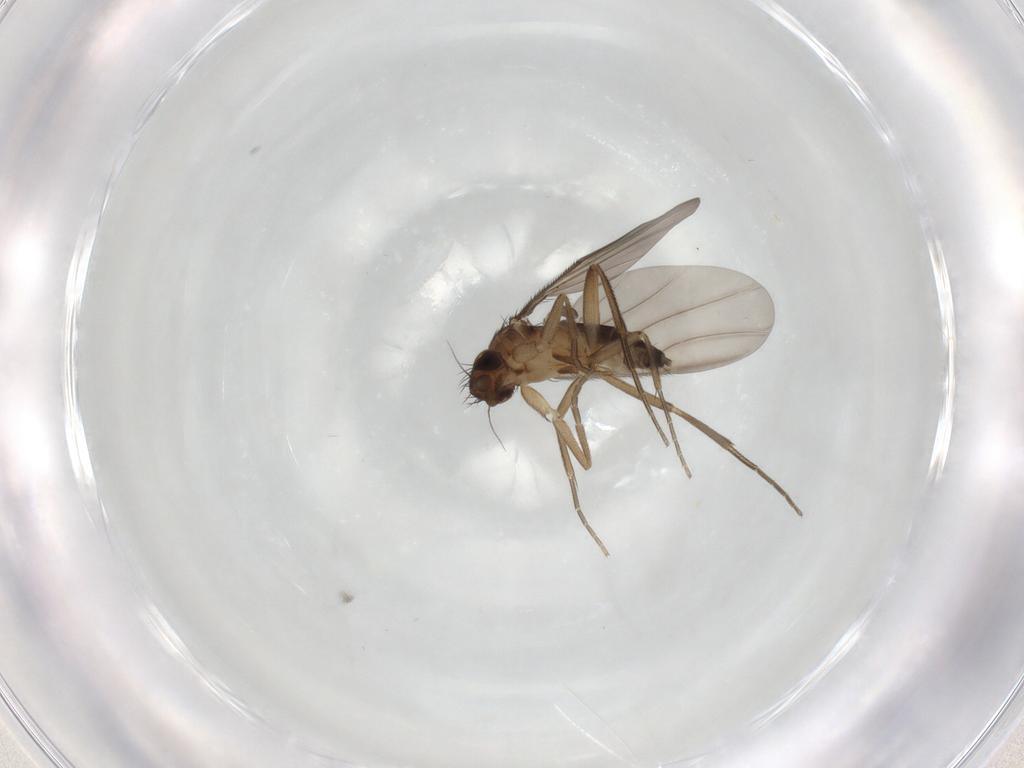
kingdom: Animalia
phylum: Arthropoda
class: Insecta
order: Diptera
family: Phoridae
